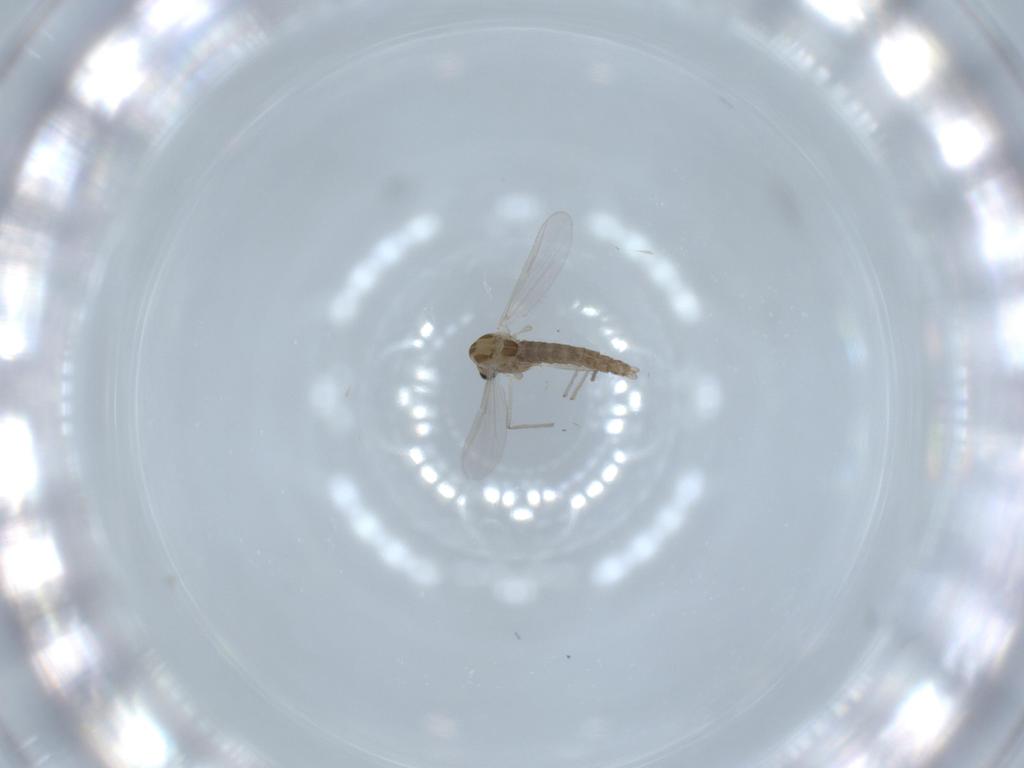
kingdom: Animalia
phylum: Arthropoda
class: Insecta
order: Diptera
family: Chironomidae
